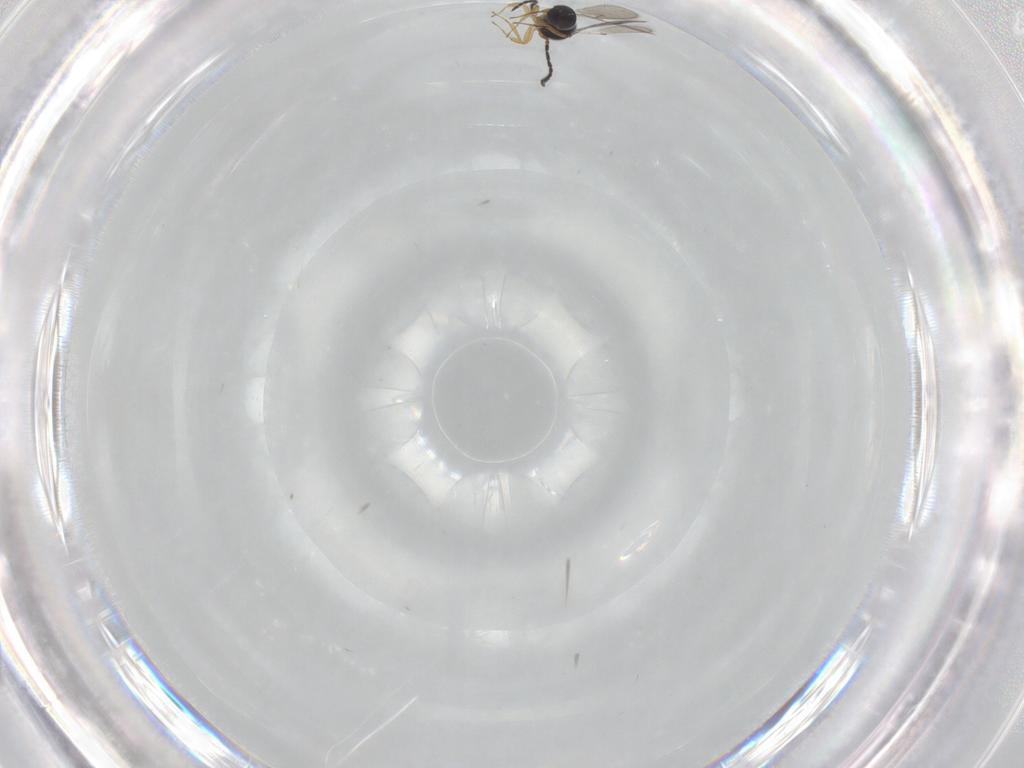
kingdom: Animalia
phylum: Arthropoda
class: Insecta
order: Hymenoptera
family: Scelionidae
